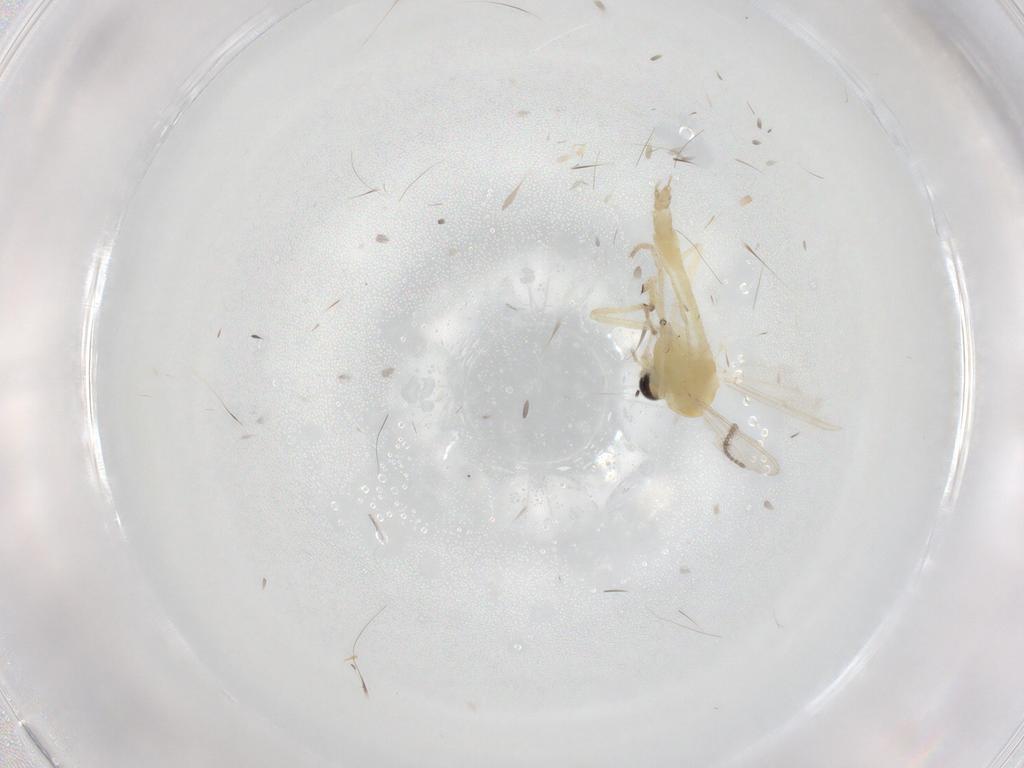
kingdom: Animalia
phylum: Arthropoda
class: Insecta
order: Diptera
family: Chironomidae
